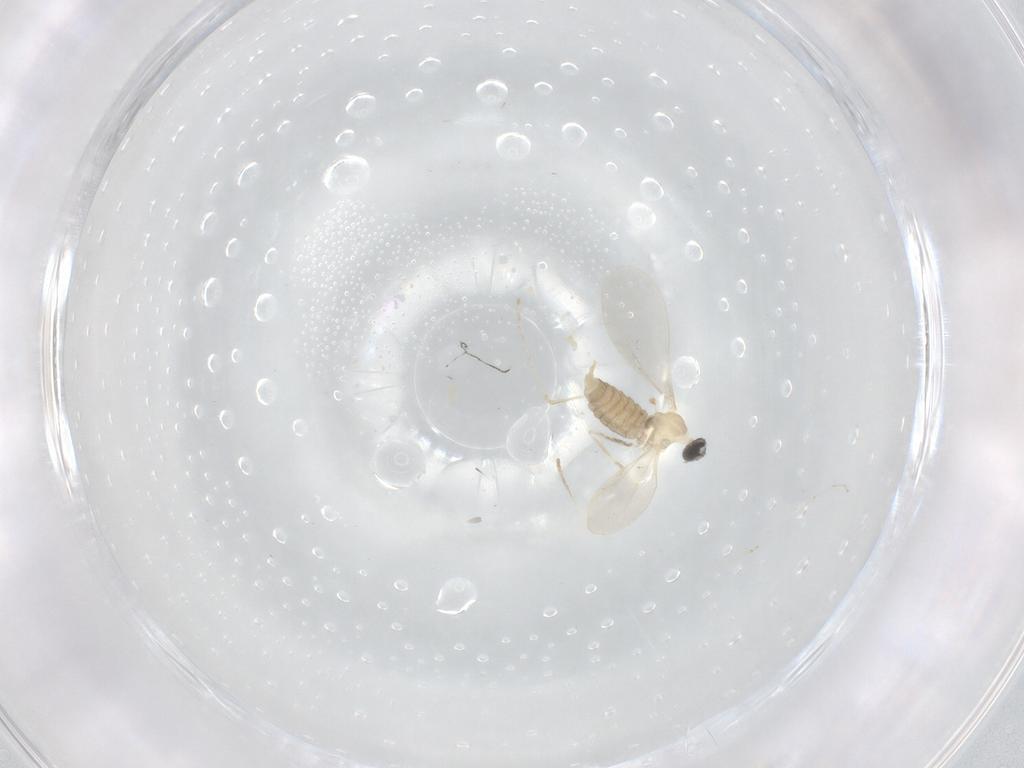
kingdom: Animalia
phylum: Arthropoda
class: Insecta
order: Diptera
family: Cecidomyiidae
